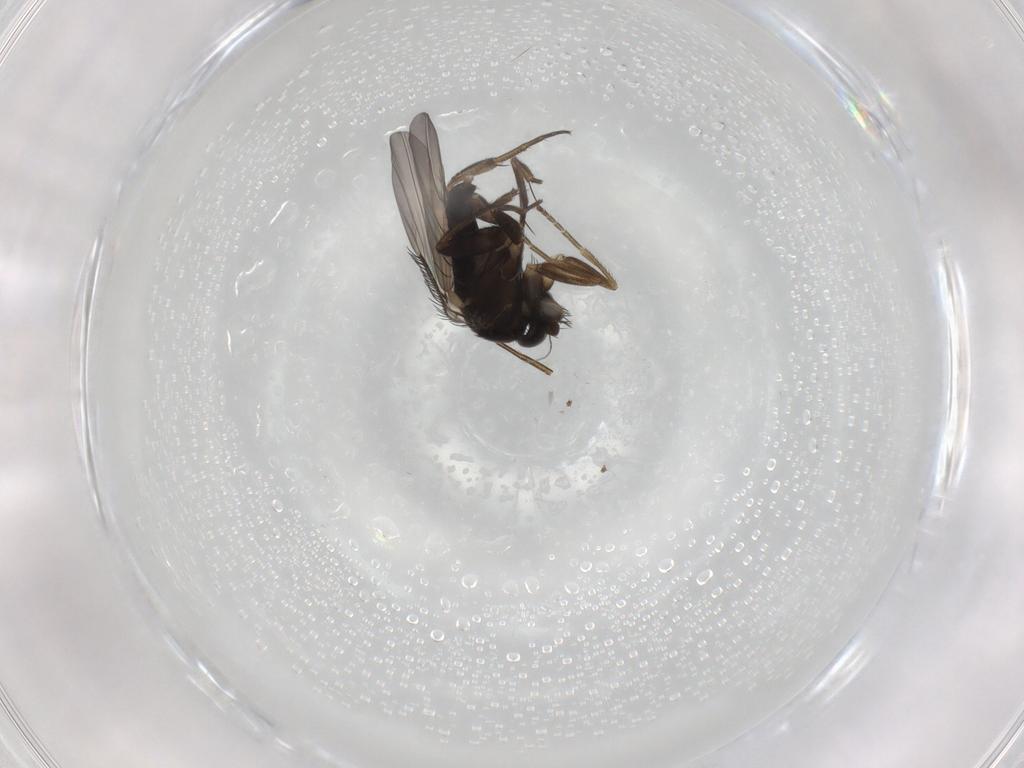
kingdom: Animalia
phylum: Arthropoda
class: Insecta
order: Diptera
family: Phoridae
